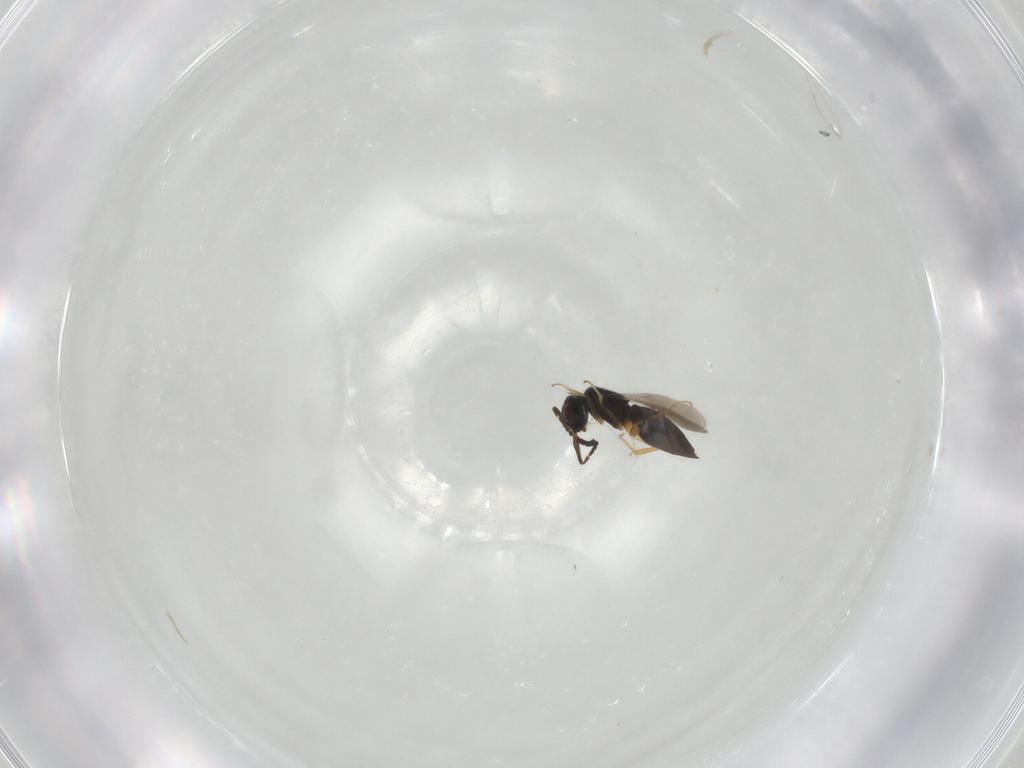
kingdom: Animalia
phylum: Arthropoda
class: Insecta
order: Hymenoptera
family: Ceraphronidae
